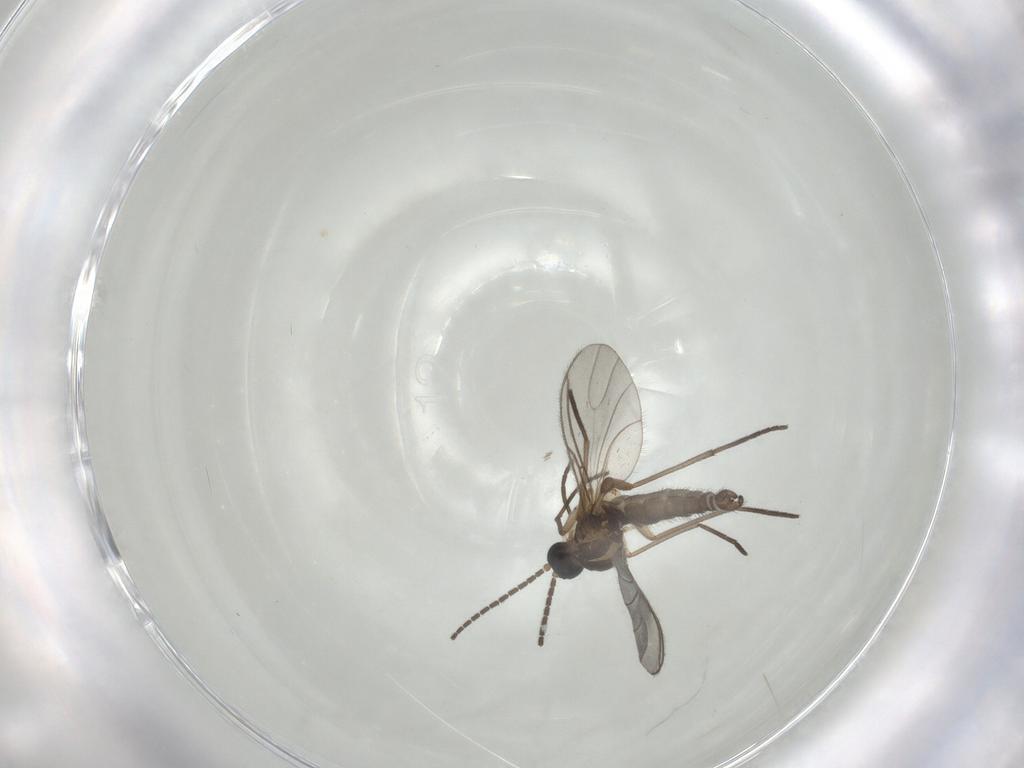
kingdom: Animalia
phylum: Arthropoda
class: Insecta
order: Diptera
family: Sciaridae
